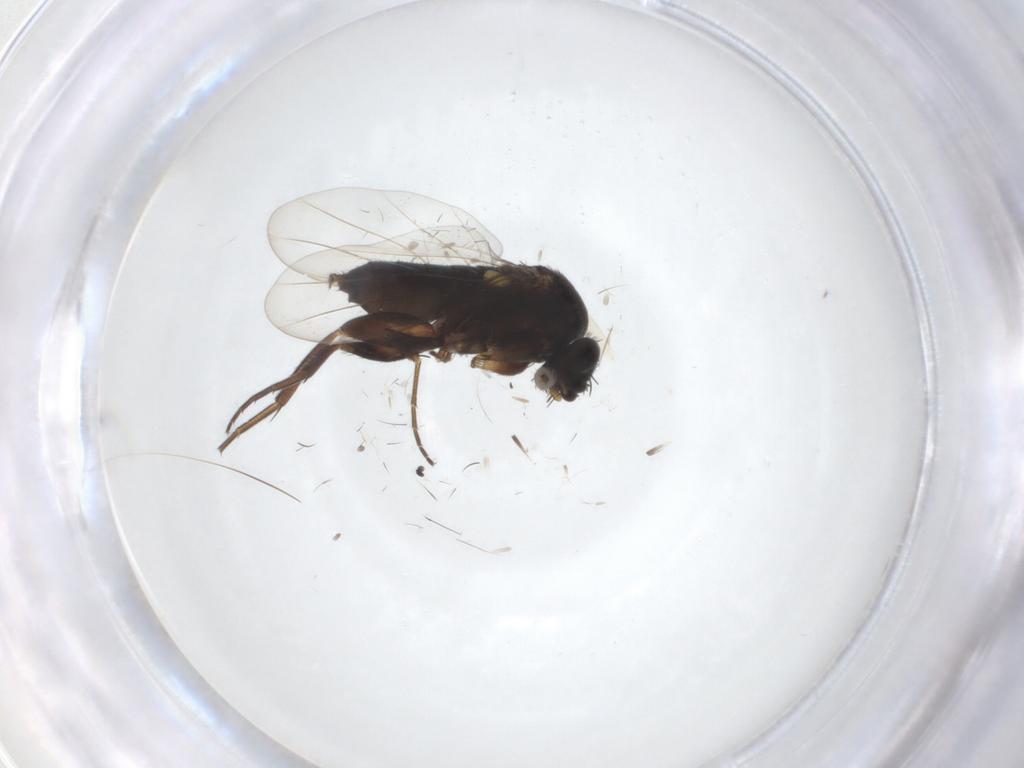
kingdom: Animalia
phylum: Arthropoda
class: Insecta
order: Diptera
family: Phoridae
